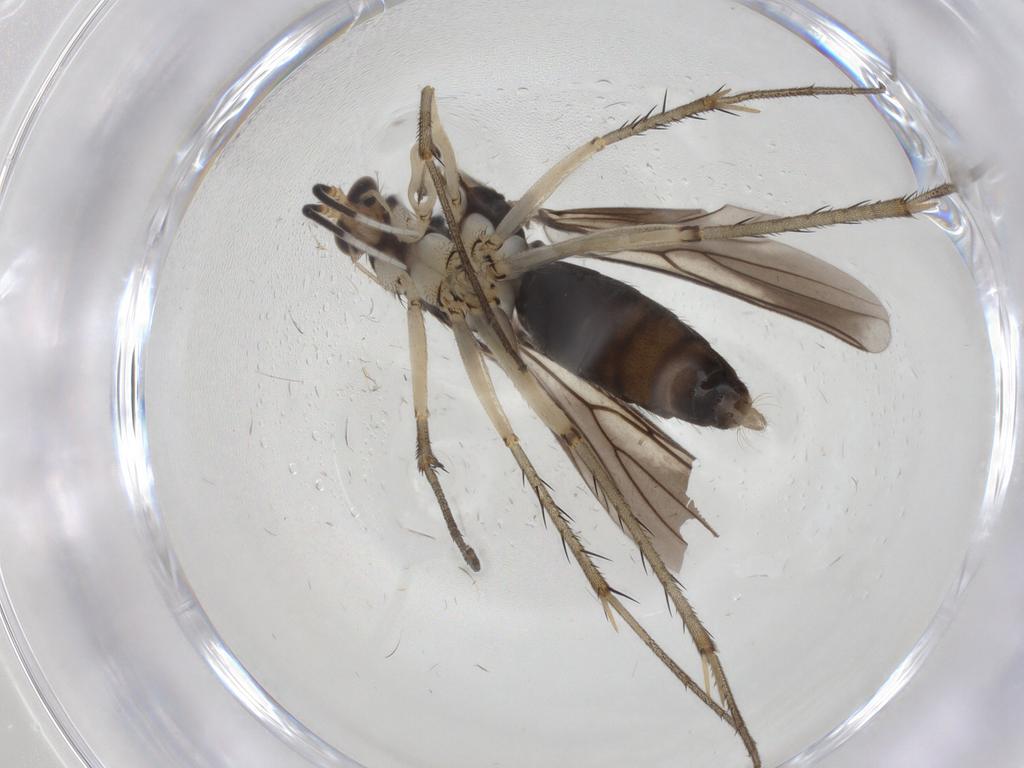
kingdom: Animalia
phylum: Arthropoda
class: Insecta
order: Diptera
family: Mycetophilidae
